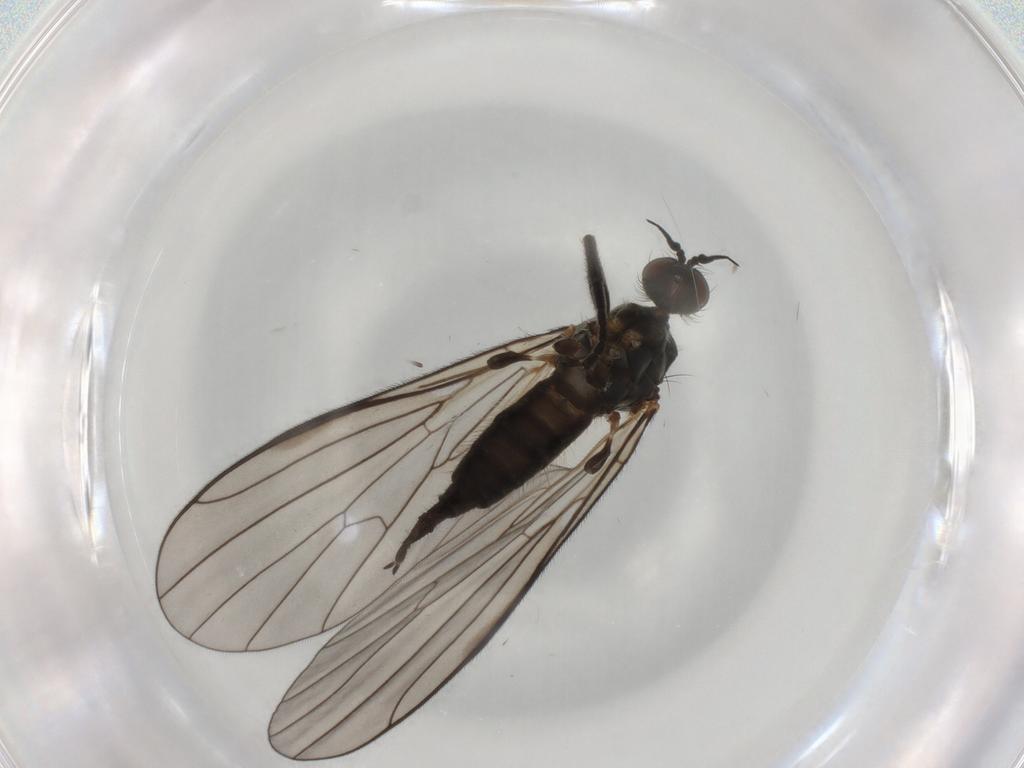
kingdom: Animalia
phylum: Arthropoda
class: Insecta
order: Diptera
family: Empididae
